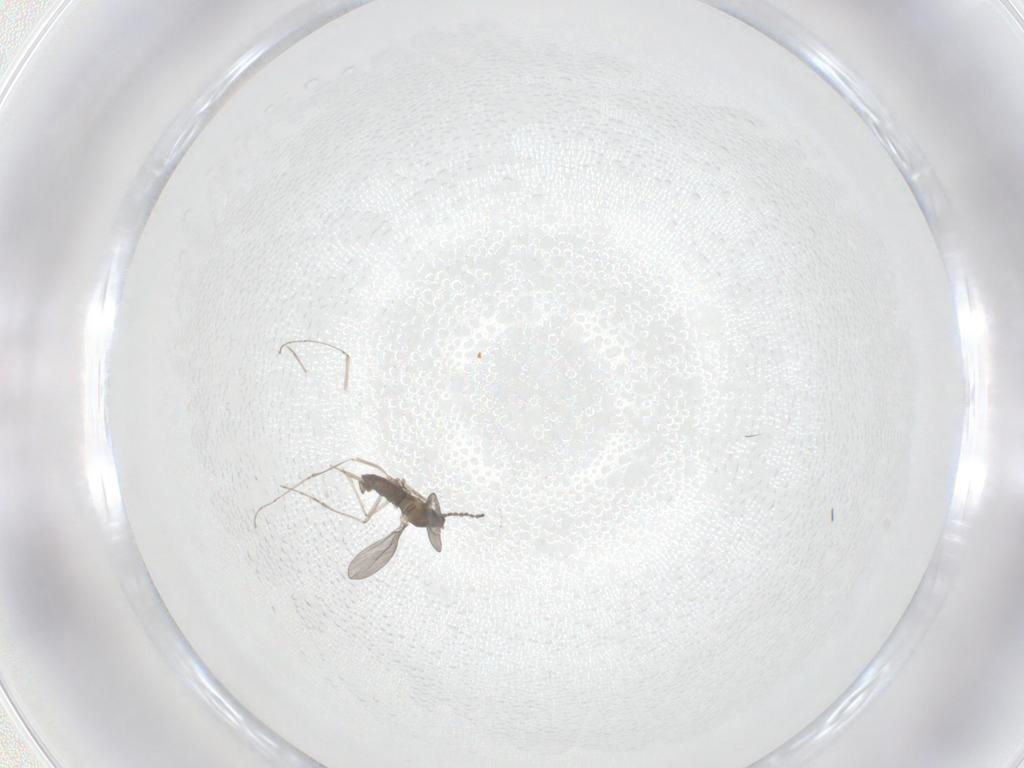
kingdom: Animalia
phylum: Arthropoda
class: Insecta
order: Diptera
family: Cecidomyiidae
